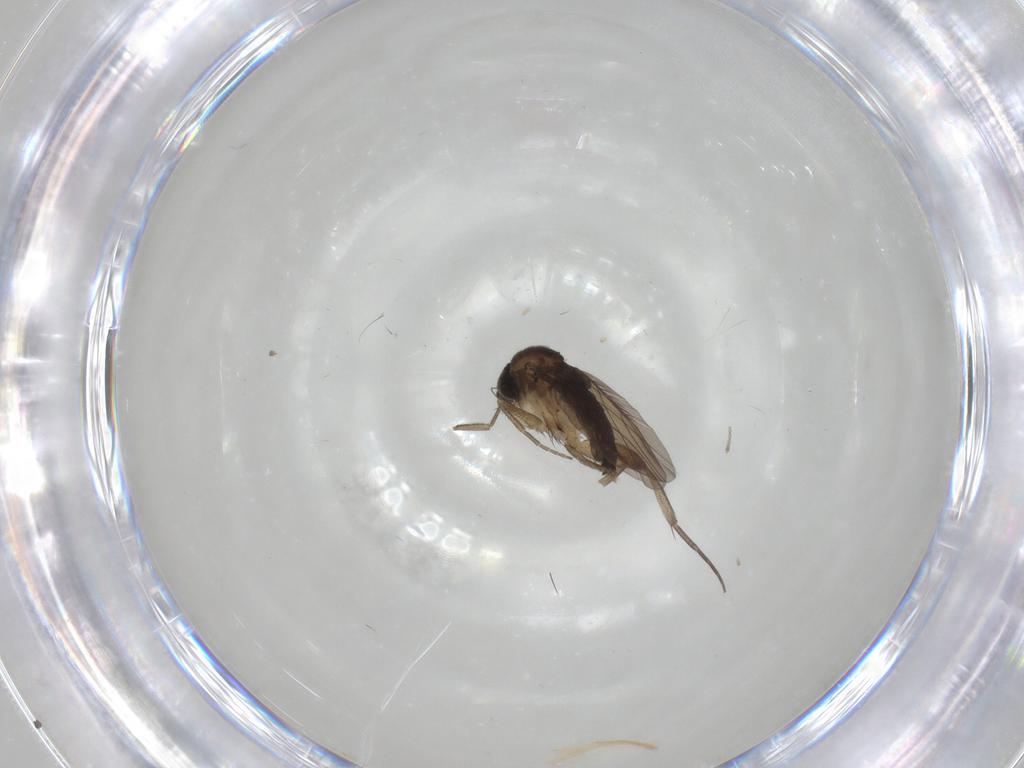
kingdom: Animalia
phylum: Arthropoda
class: Insecta
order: Diptera
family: Phoridae
